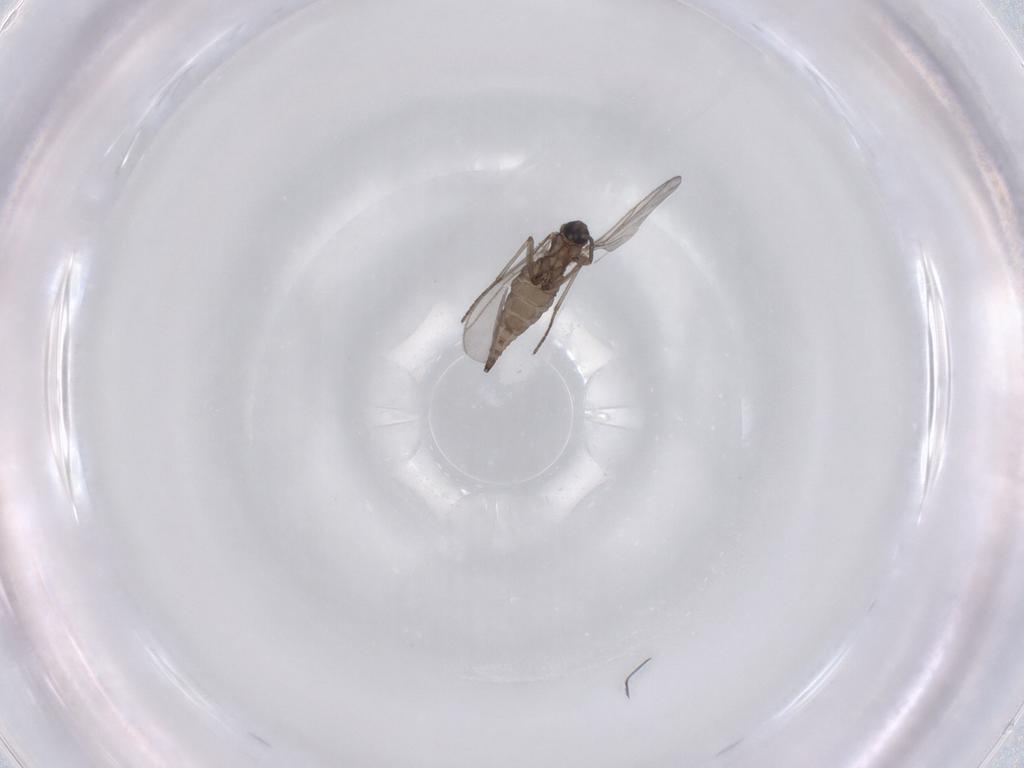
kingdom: Animalia
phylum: Arthropoda
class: Insecta
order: Diptera
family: Sciaridae
